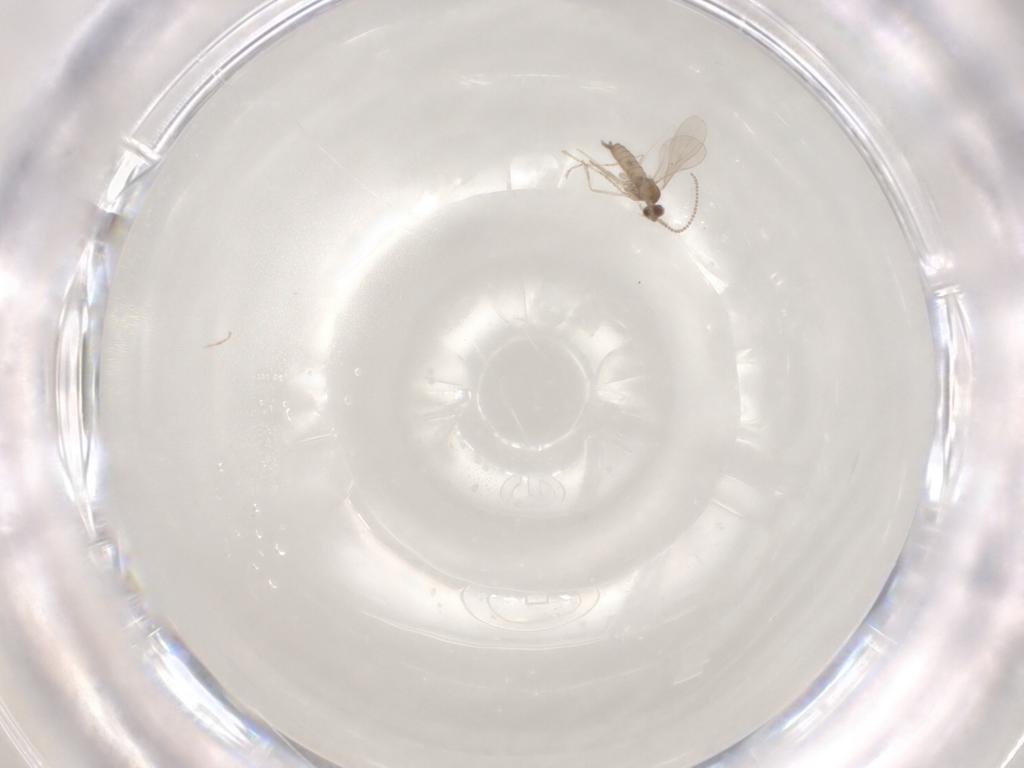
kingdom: Animalia
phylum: Arthropoda
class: Insecta
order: Diptera
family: Cecidomyiidae
